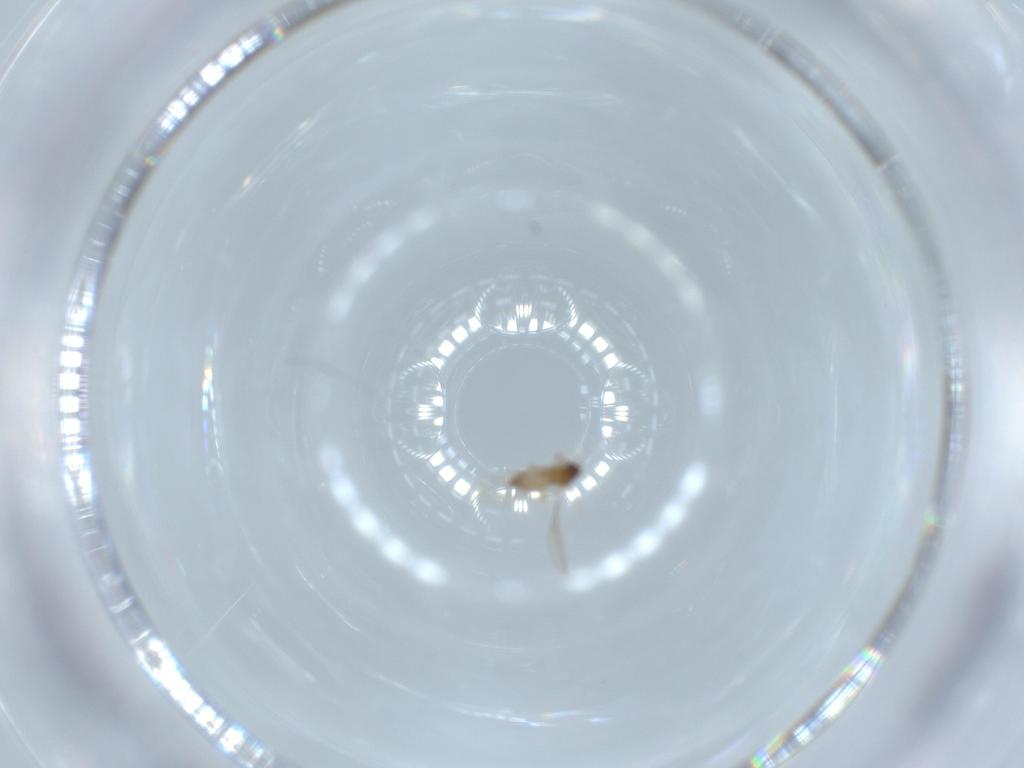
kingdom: Animalia
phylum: Arthropoda
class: Insecta
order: Diptera
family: Cecidomyiidae
